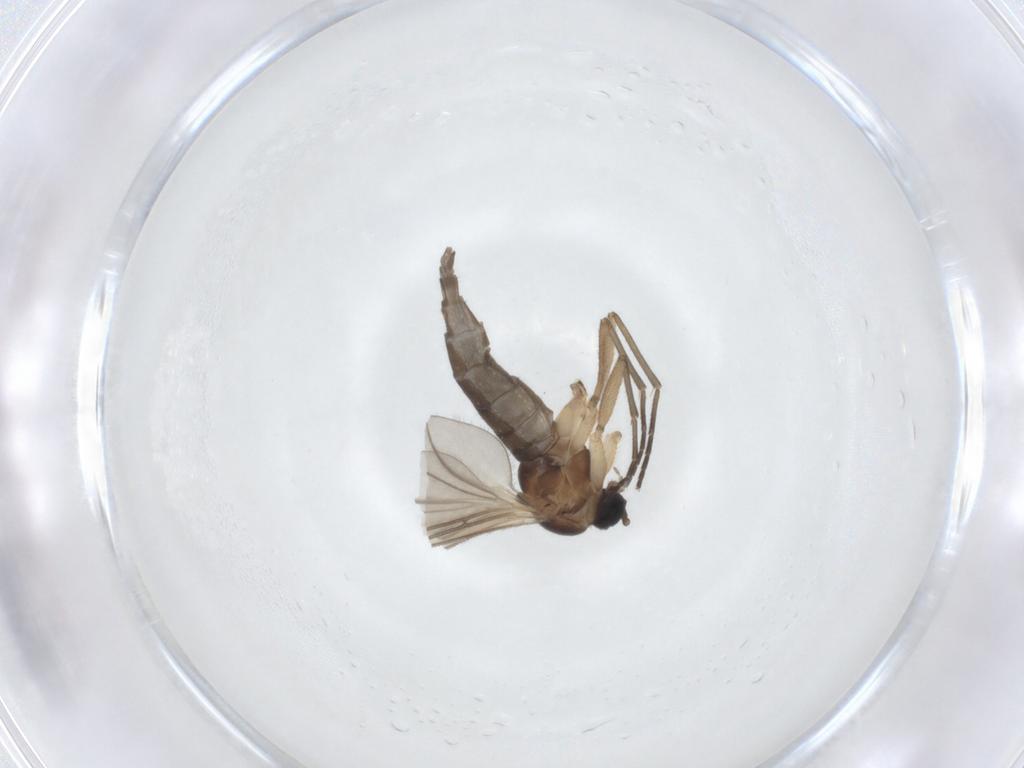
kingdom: Animalia
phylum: Arthropoda
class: Insecta
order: Diptera
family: Sciaridae
